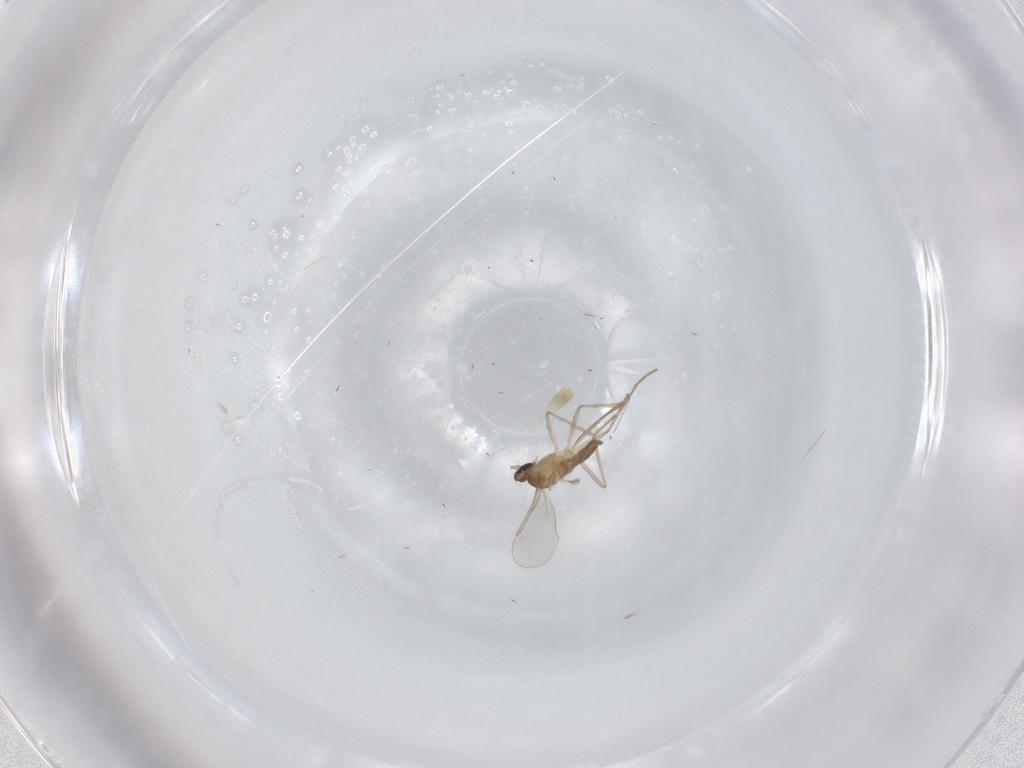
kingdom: Animalia
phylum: Arthropoda
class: Insecta
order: Diptera
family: Cecidomyiidae
